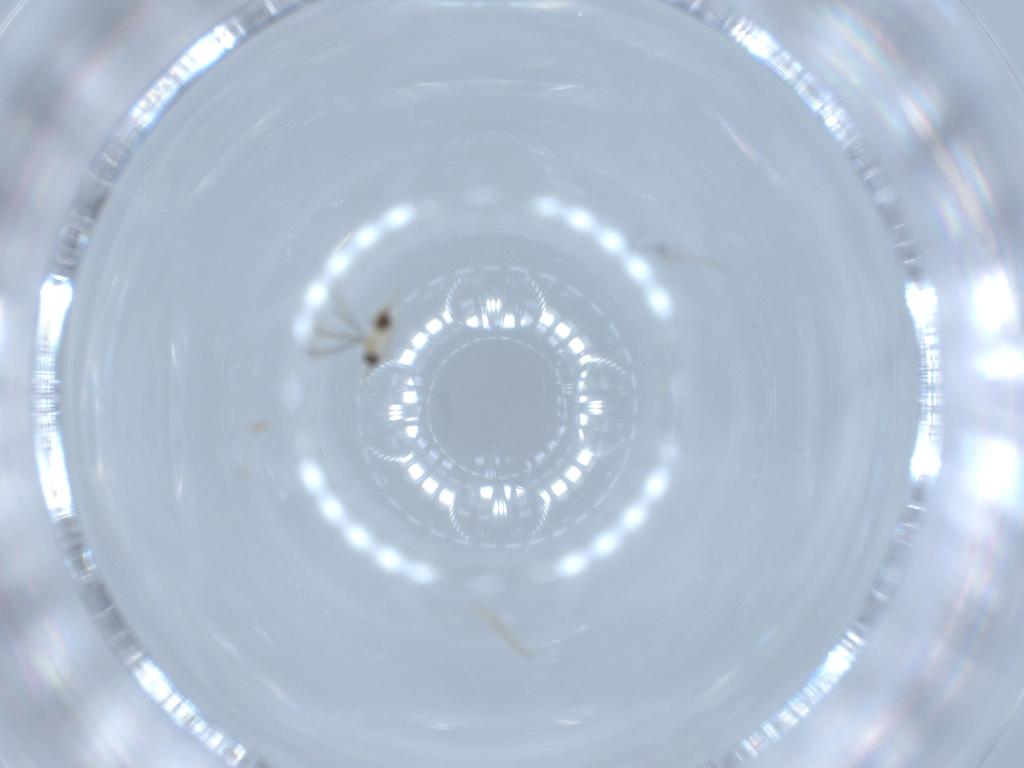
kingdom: Animalia
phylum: Arthropoda
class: Insecta
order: Hymenoptera
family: Mymaridae
